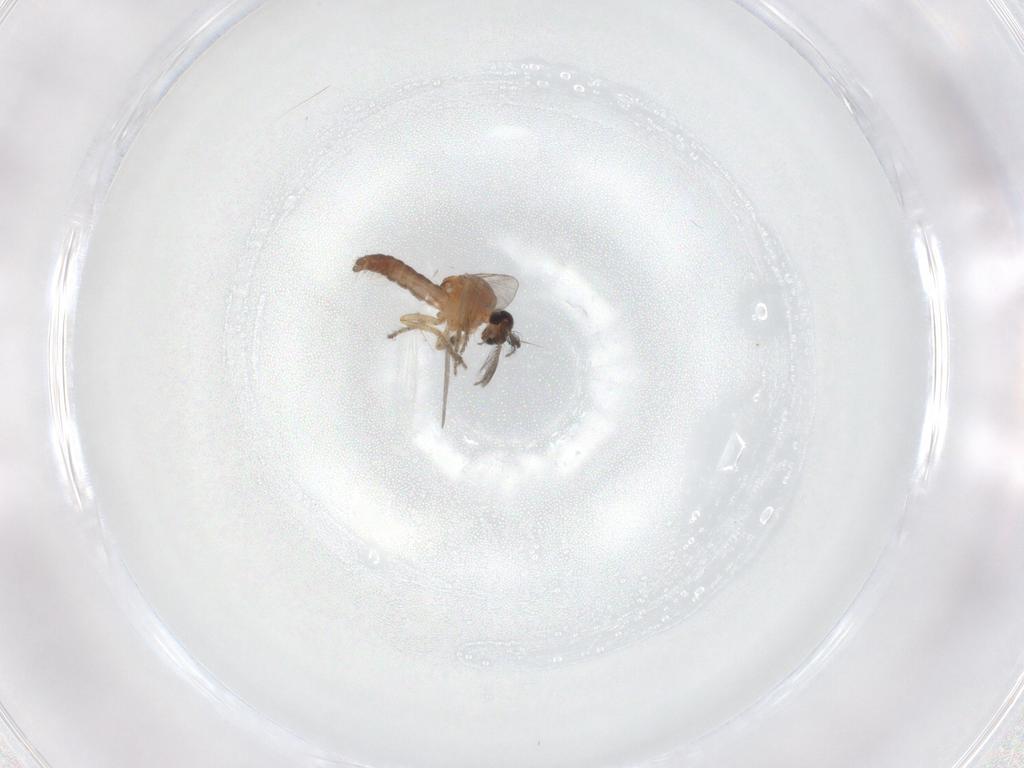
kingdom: Animalia
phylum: Arthropoda
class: Insecta
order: Diptera
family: Ceratopogonidae
